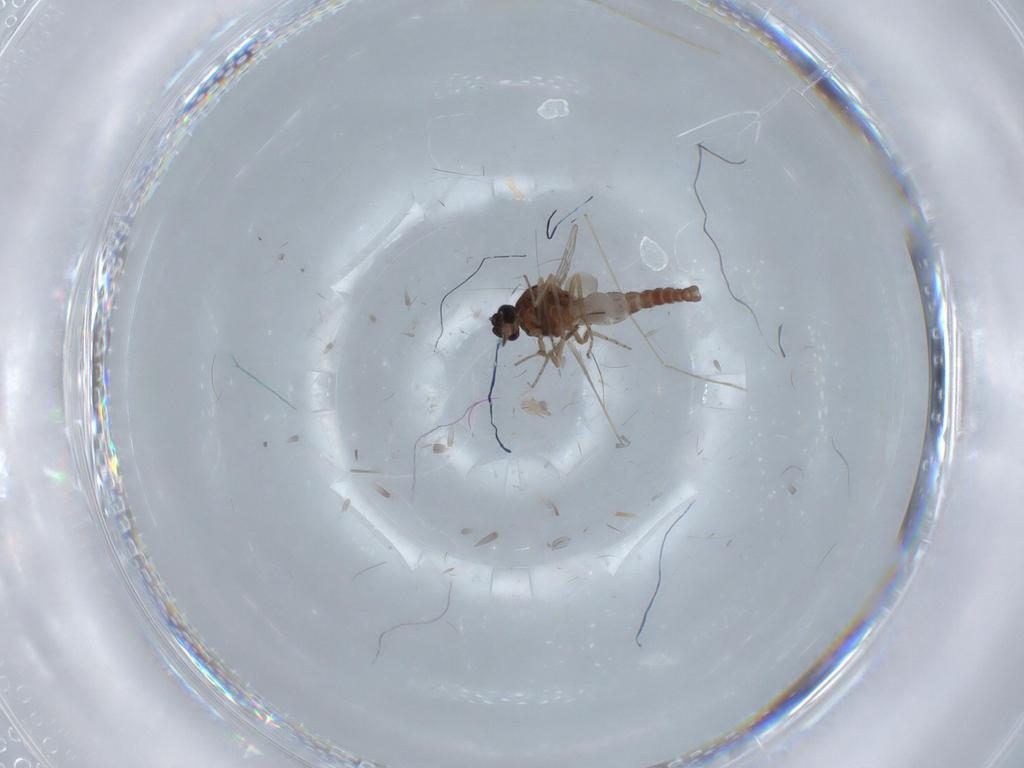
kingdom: Animalia
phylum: Arthropoda
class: Insecta
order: Diptera
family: Ceratopogonidae
